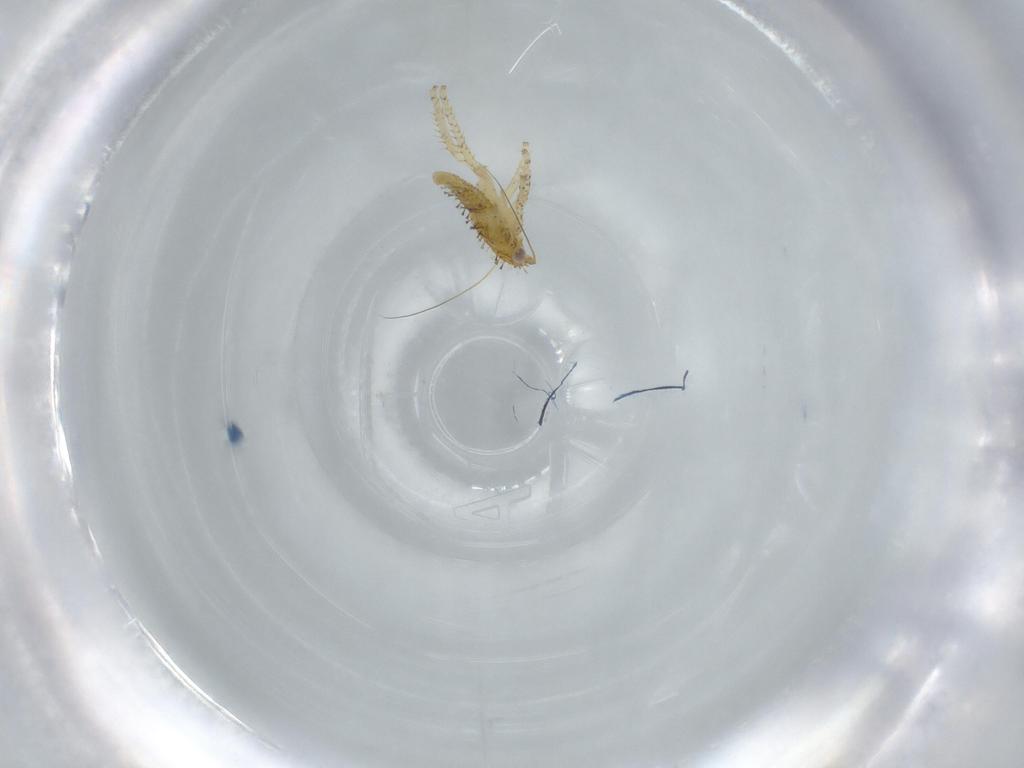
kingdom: Animalia
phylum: Arthropoda
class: Insecta
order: Hemiptera
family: Cicadellidae
